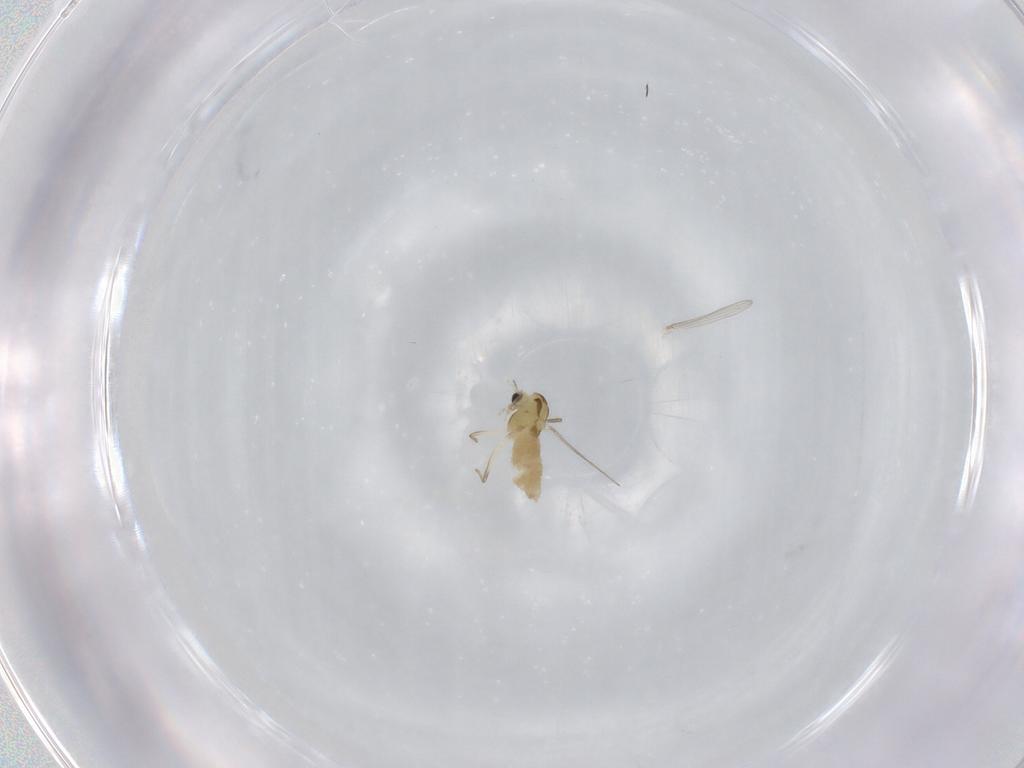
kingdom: Animalia
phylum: Arthropoda
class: Insecta
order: Diptera
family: Chironomidae
